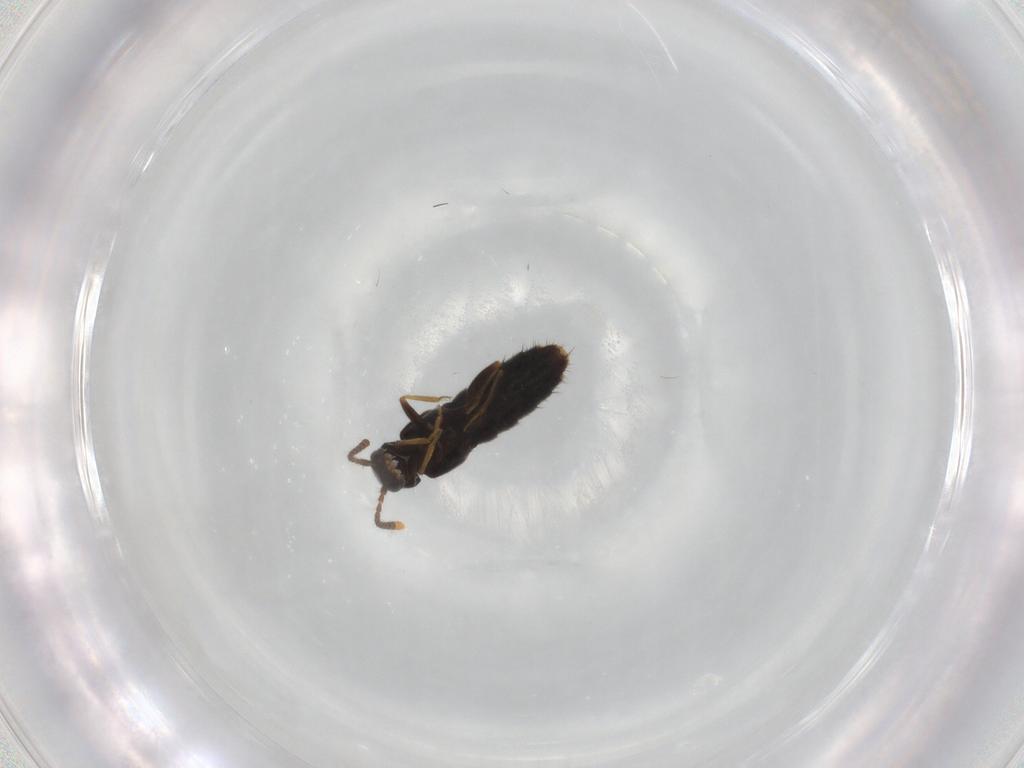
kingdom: Animalia
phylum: Arthropoda
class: Insecta
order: Coleoptera
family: Staphylinidae
